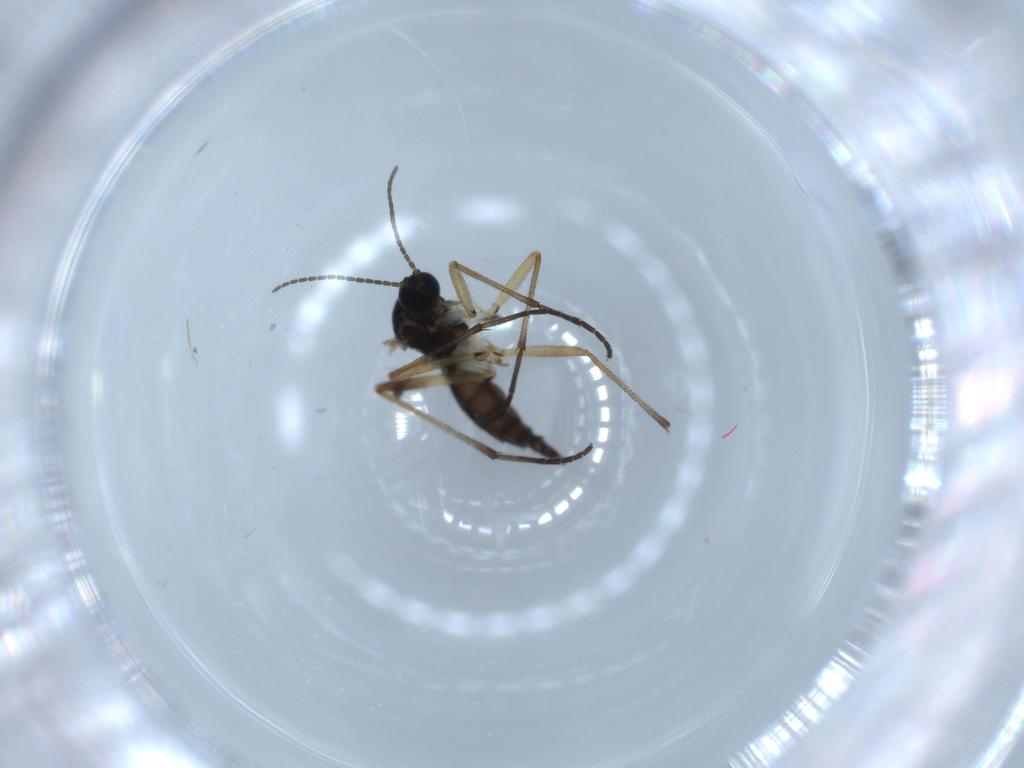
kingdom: Animalia
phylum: Arthropoda
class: Insecta
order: Diptera
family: Sciaridae
